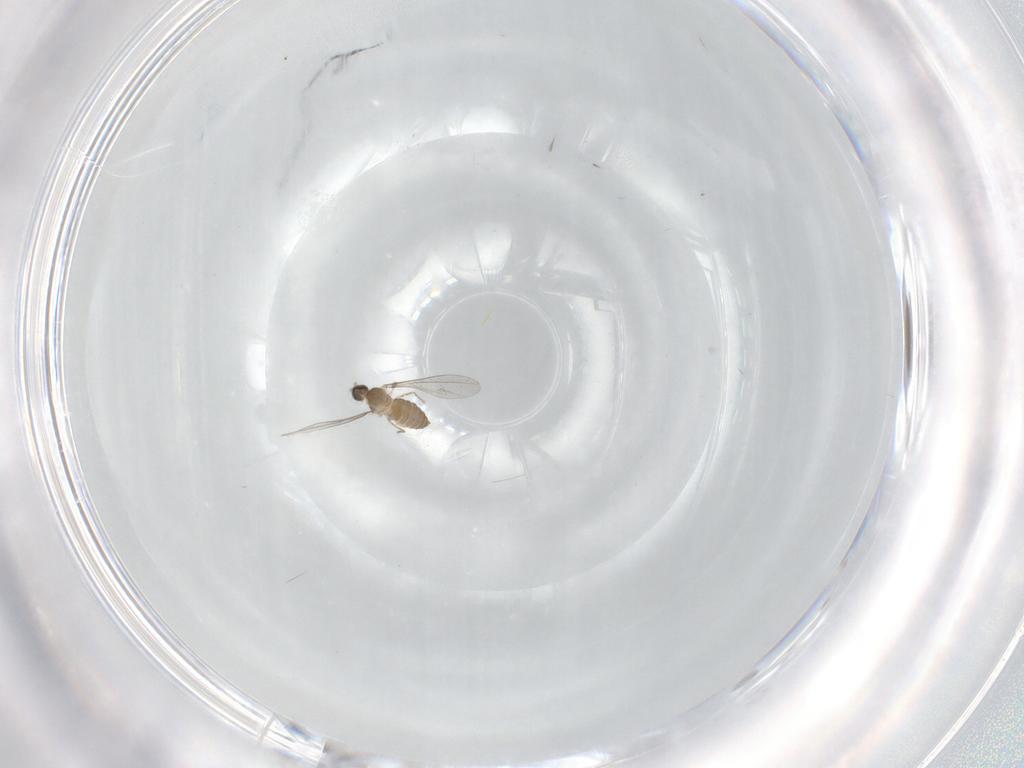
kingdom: Animalia
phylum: Arthropoda
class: Insecta
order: Diptera
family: Cecidomyiidae
